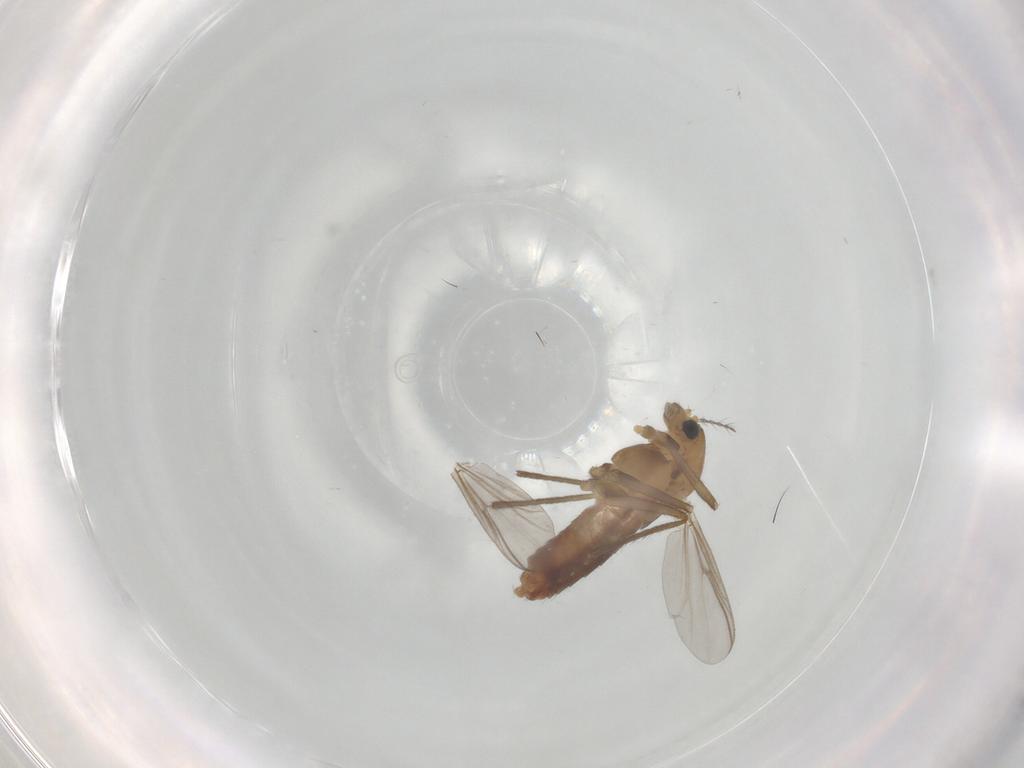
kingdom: Animalia
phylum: Arthropoda
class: Insecta
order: Diptera
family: Chironomidae
